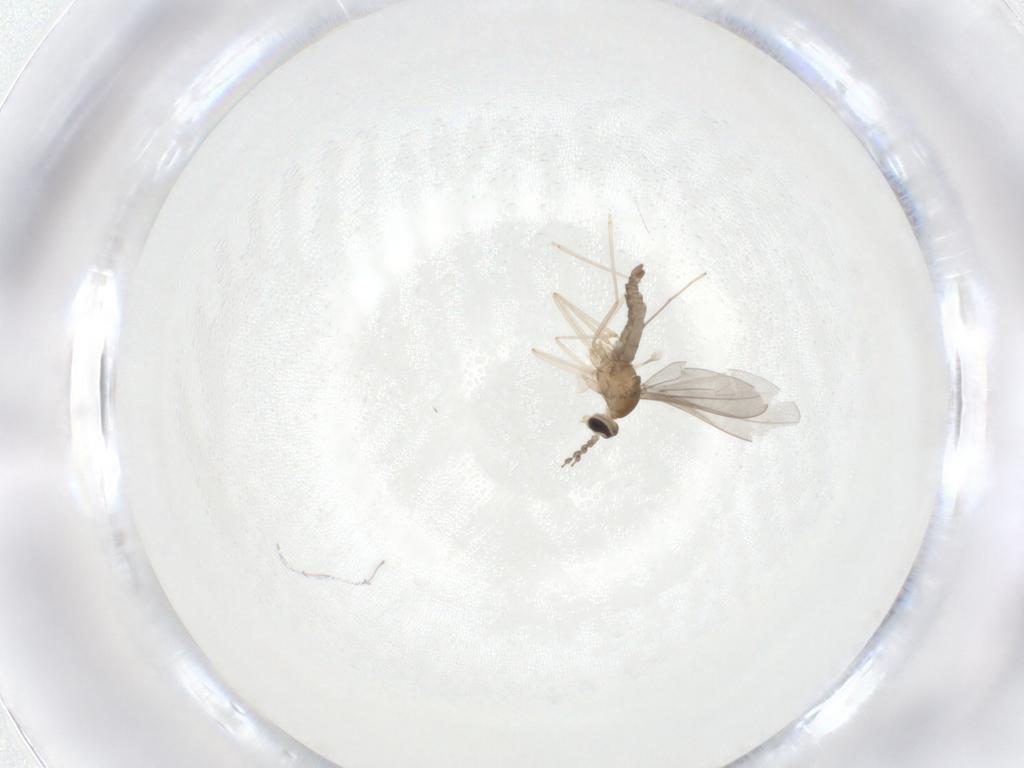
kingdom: Animalia
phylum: Arthropoda
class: Insecta
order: Diptera
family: Cecidomyiidae
